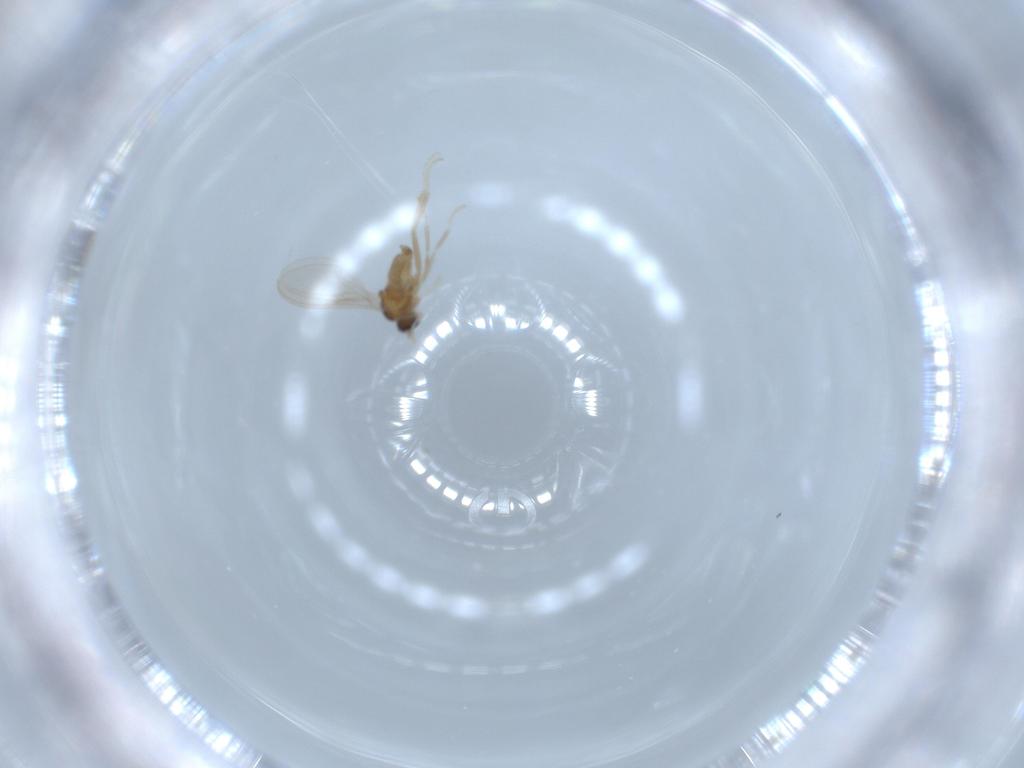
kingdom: Animalia
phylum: Arthropoda
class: Insecta
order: Diptera
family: Cecidomyiidae
